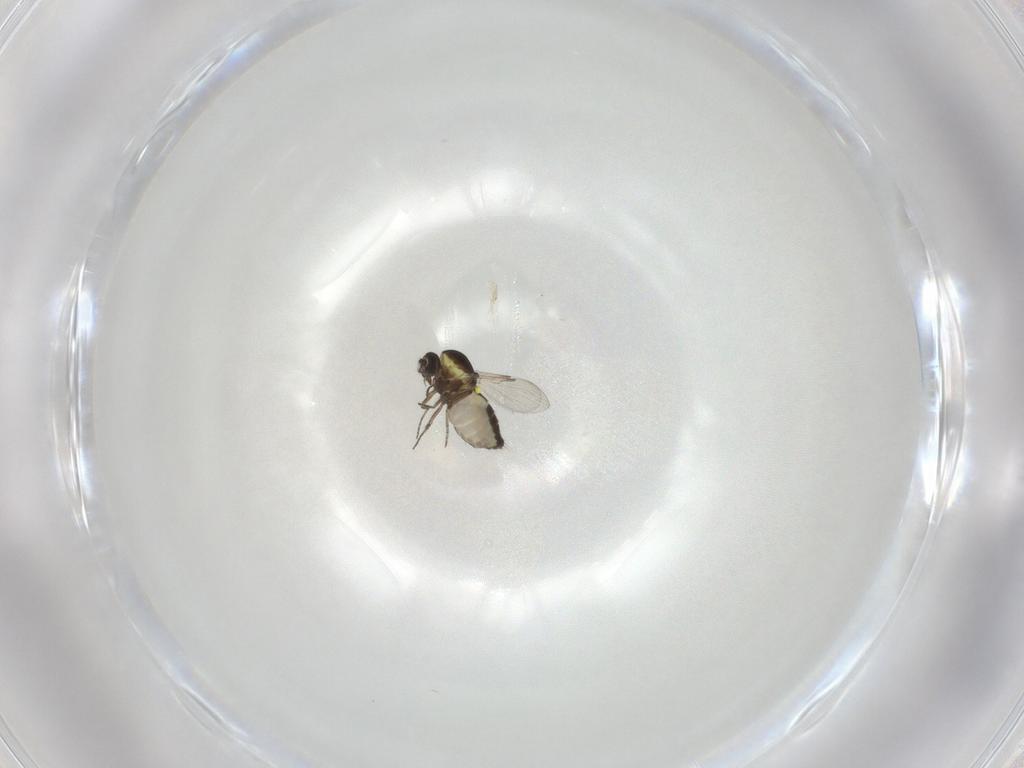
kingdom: Animalia
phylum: Arthropoda
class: Insecta
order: Diptera
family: Ceratopogonidae
